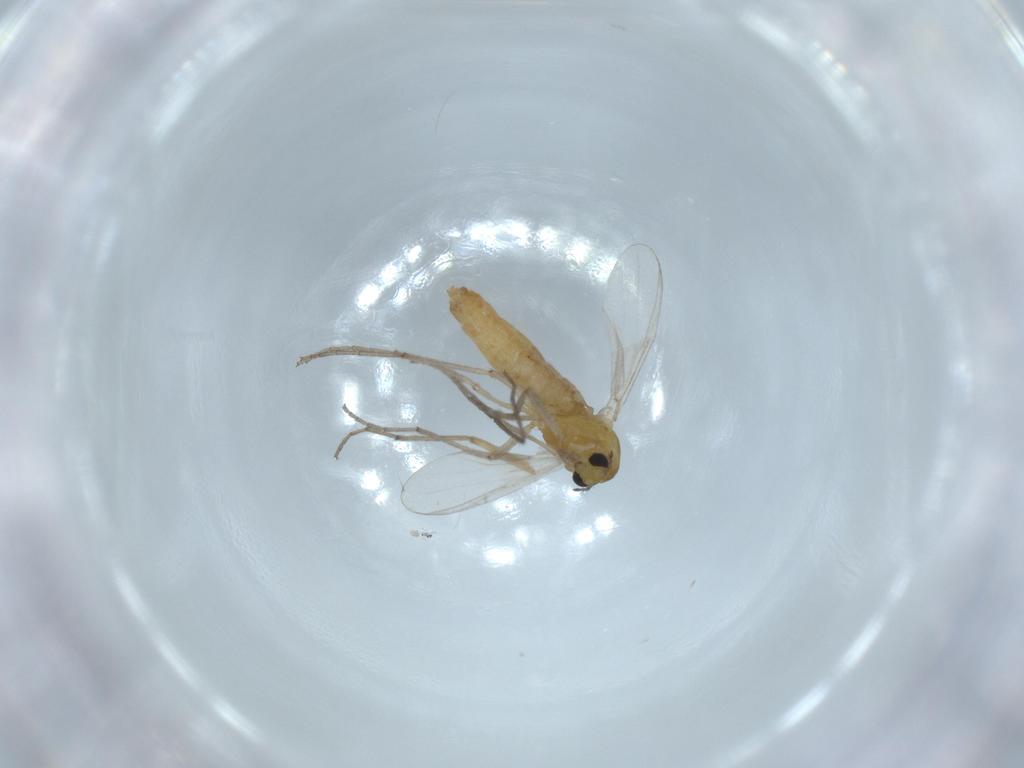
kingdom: Animalia
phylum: Arthropoda
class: Insecta
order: Diptera
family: Chironomidae
